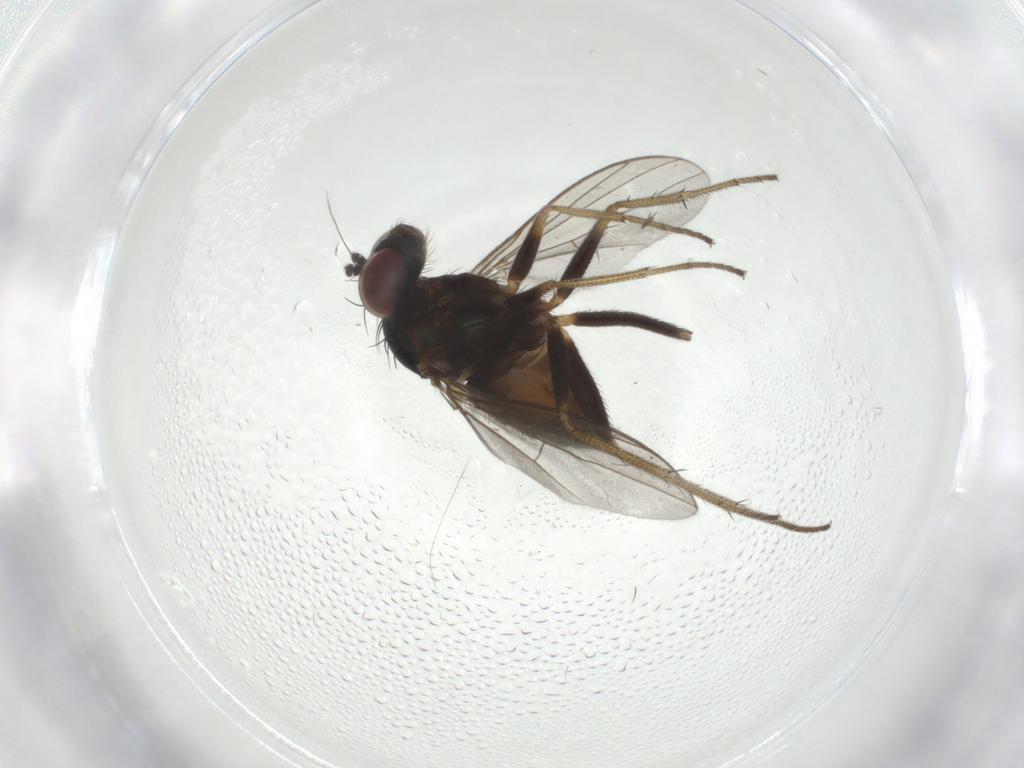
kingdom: Animalia
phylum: Arthropoda
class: Insecta
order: Diptera
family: Dolichopodidae
